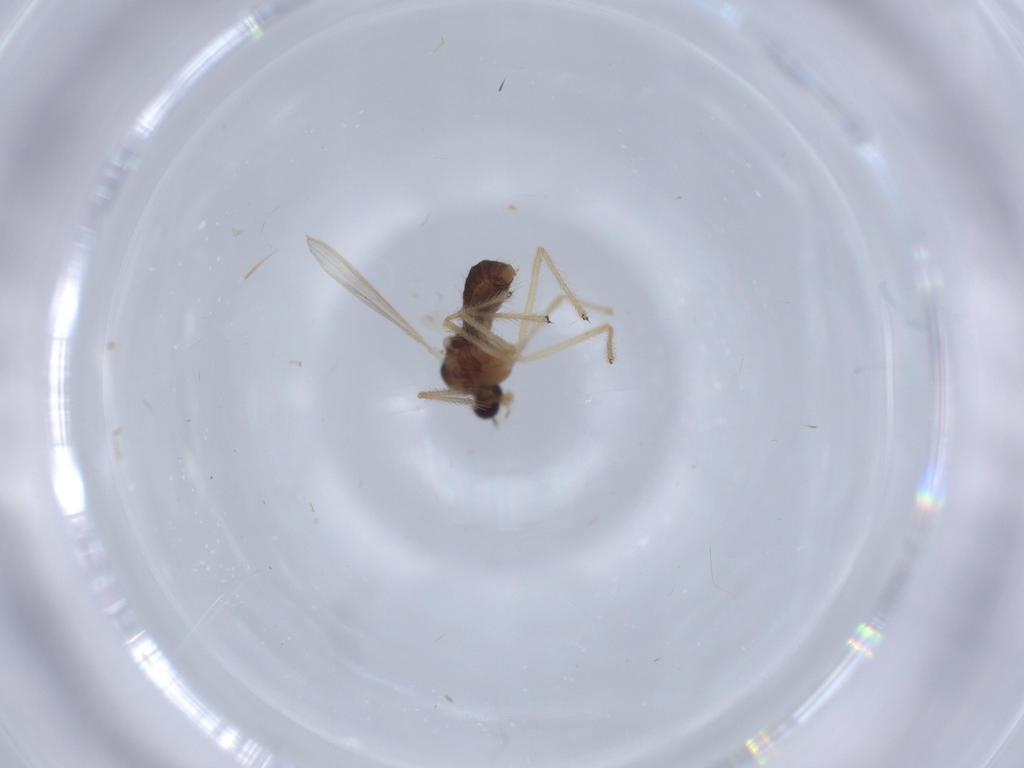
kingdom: Animalia
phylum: Arthropoda
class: Insecta
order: Diptera
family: Chironomidae
